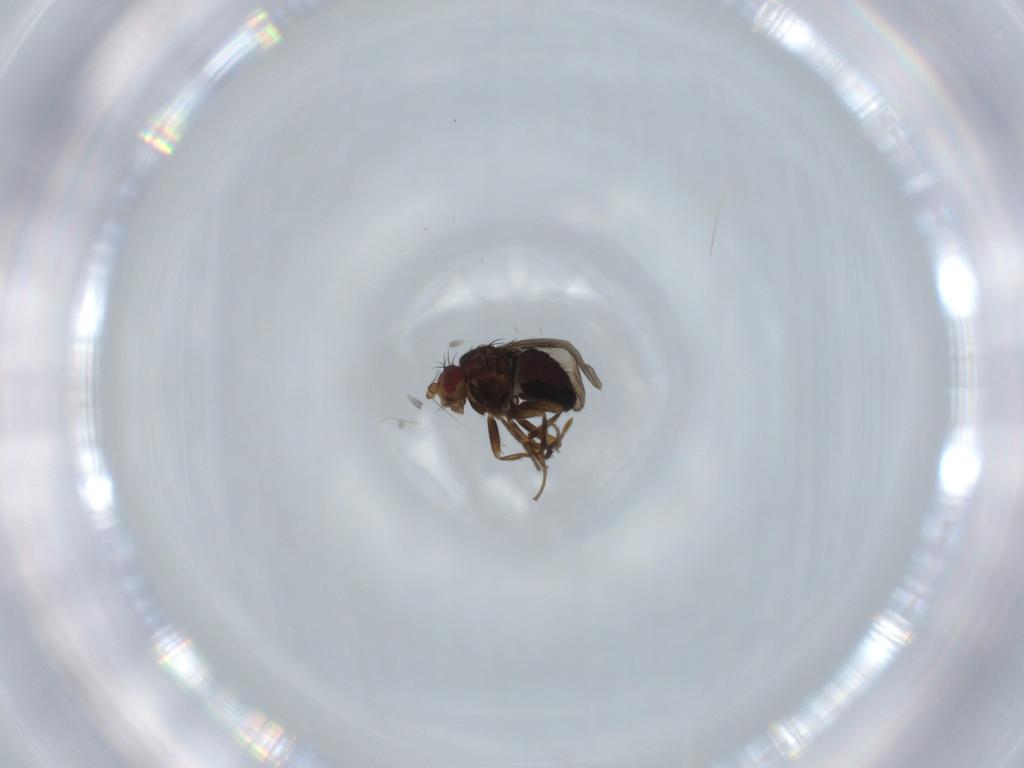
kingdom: Animalia
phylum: Arthropoda
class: Insecta
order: Diptera
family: Sphaeroceridae
